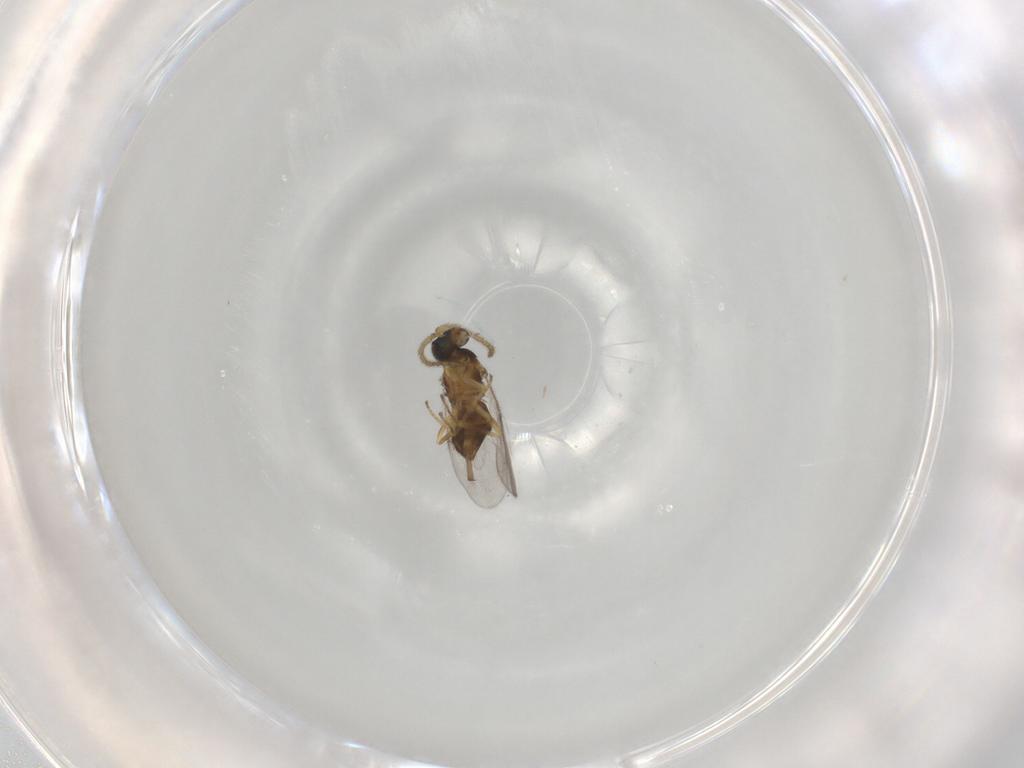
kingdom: Animalia
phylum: Arthropoda
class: Insecta
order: Hymenoptera
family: Encyrtidae
